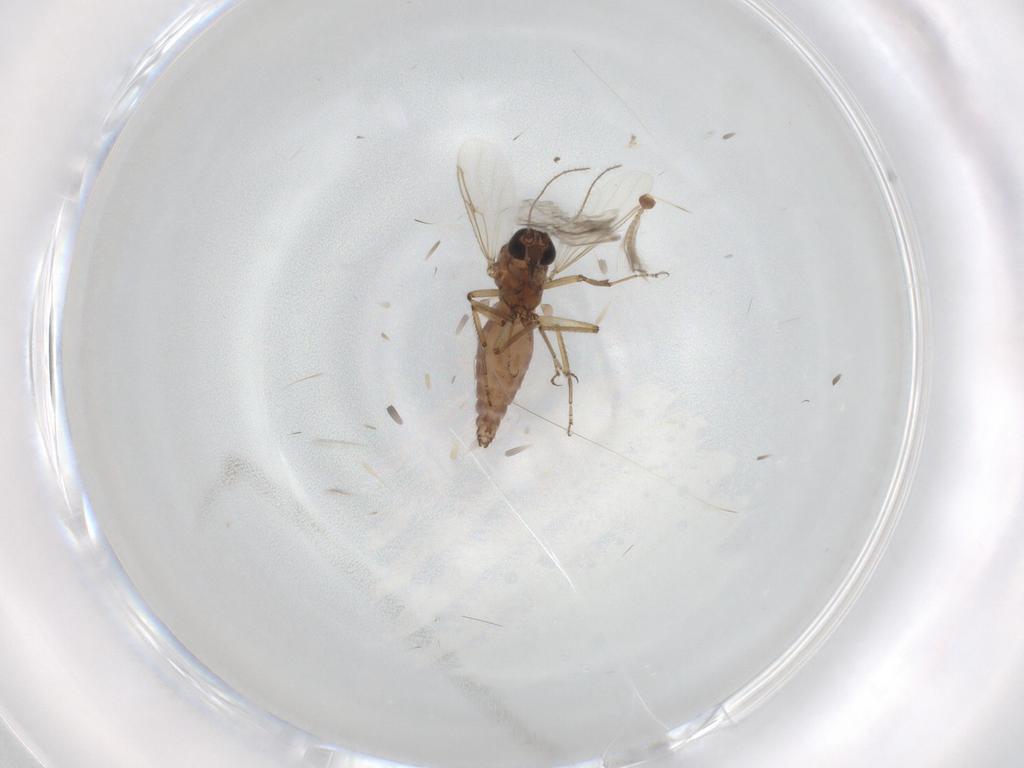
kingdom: Animalia
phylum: Arthropoda
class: Insecta
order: Diptera
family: Ceratopogonidae
